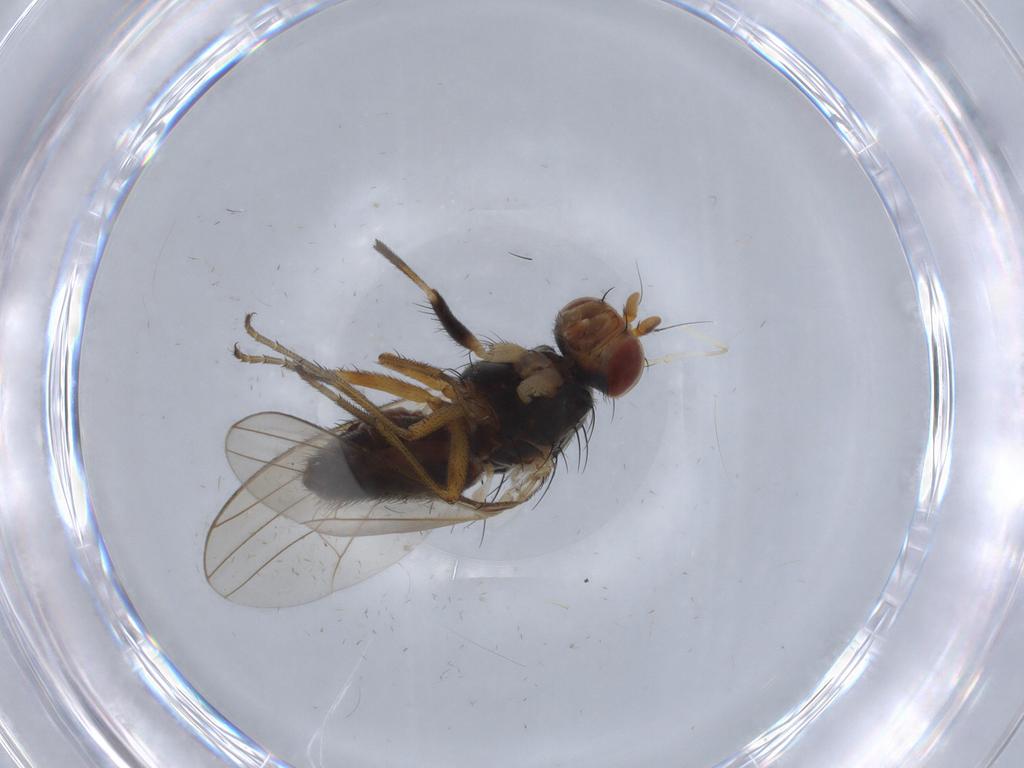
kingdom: Animalia
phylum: Arthropoda
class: Insecta
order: Diptera
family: Heleomyzidae
